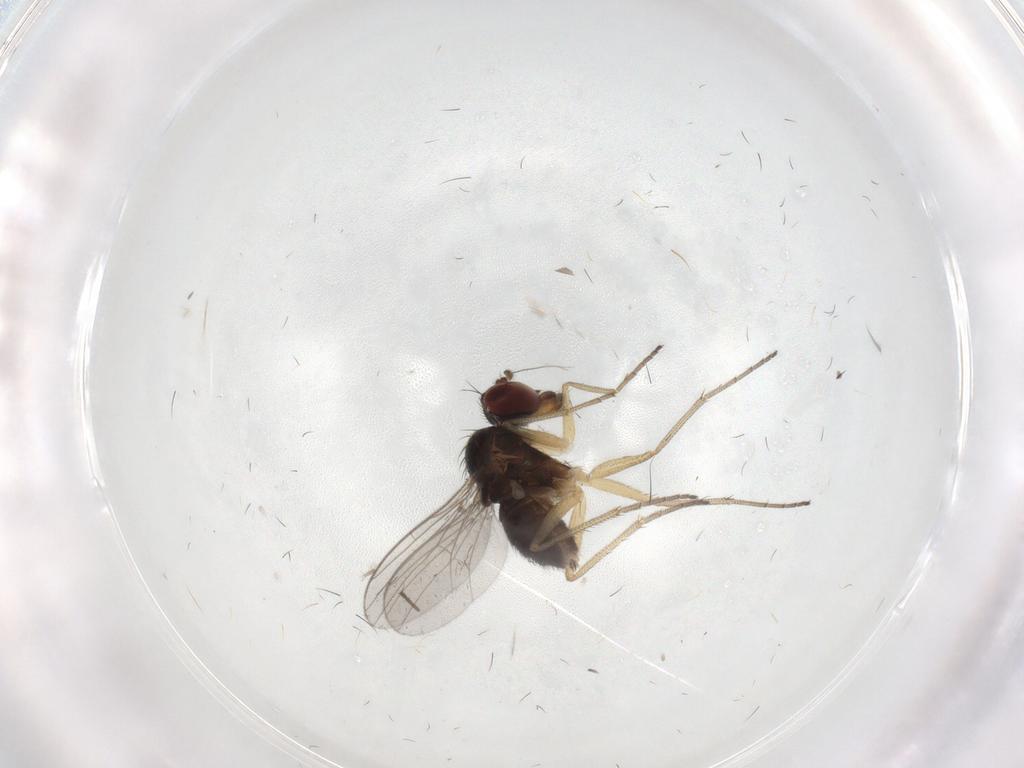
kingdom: Animalia
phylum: Arthropoda
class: Insecta
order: Diptera
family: Dolichopodidae
